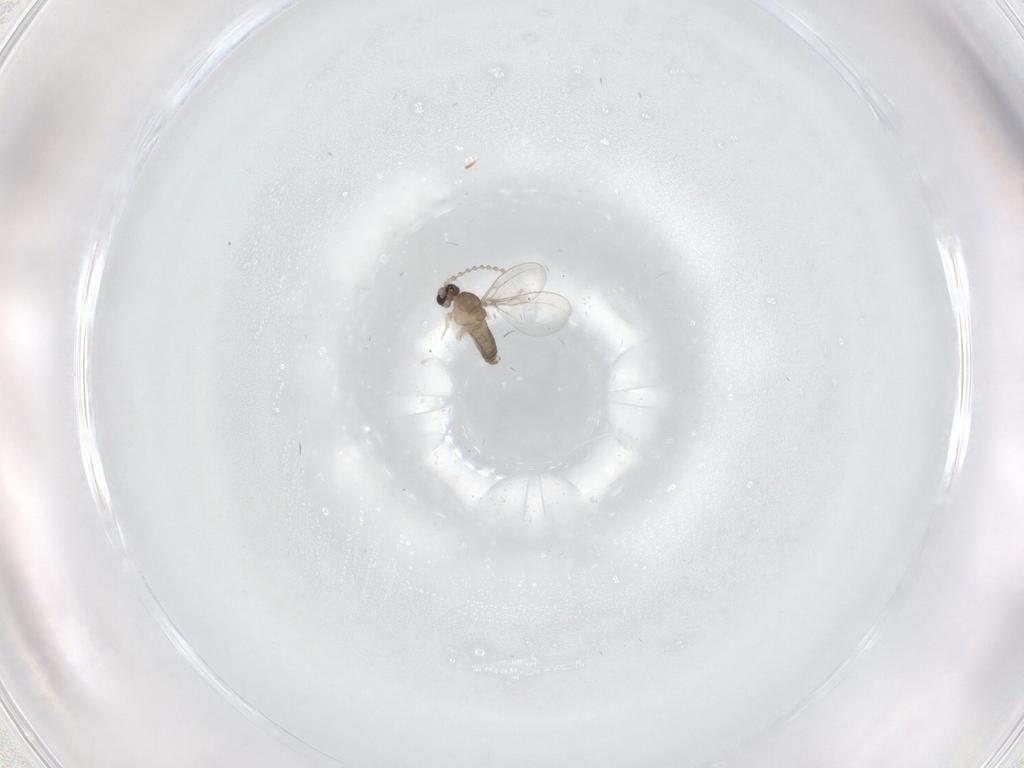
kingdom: Animalia
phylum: Arthropoda
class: Insecta
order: Diptera
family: Cecidomyiidae
